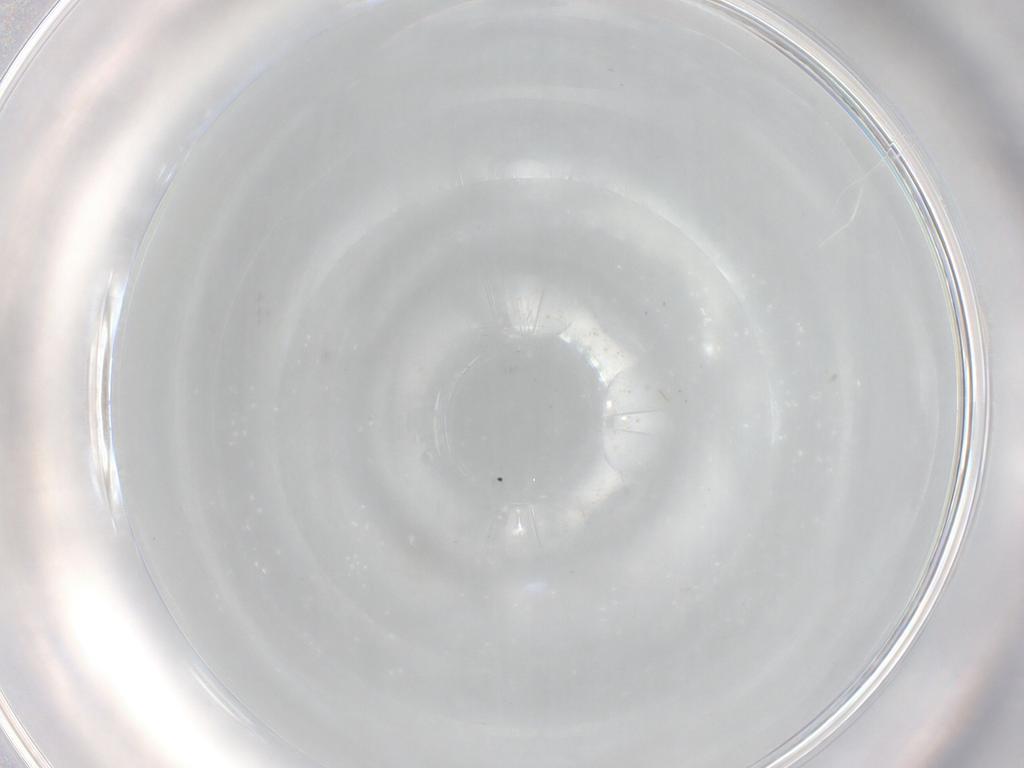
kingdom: Animalia
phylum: Arthropoda
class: Insecta
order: Diptera
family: Cecidomyiidae
